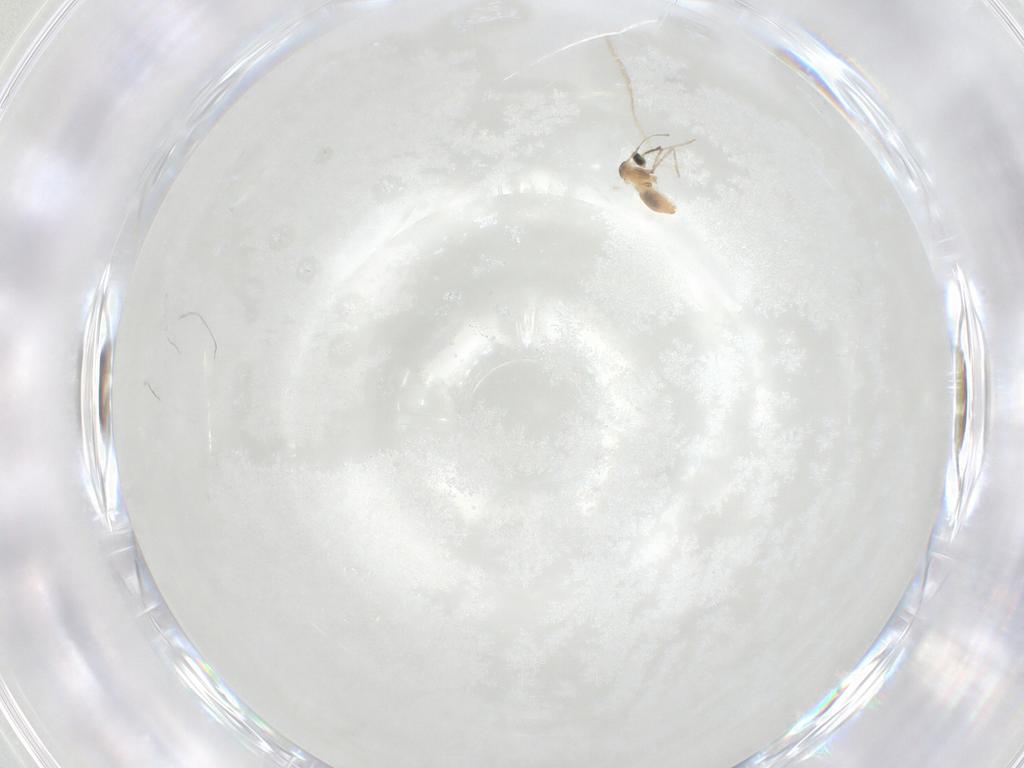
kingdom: Animalia
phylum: Arthropoda
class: Insecta
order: Diptera
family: Cecidomyiidae
